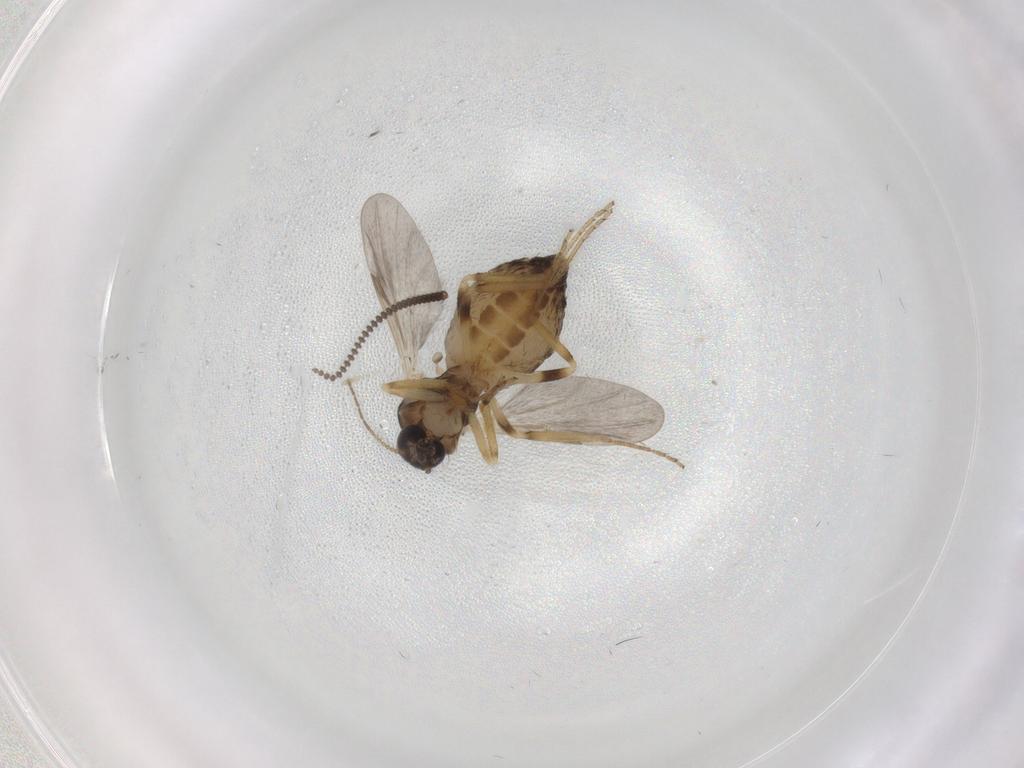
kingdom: Animalia
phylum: Arthropoda
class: Insecta
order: Diptera
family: Ceratopogonidae
